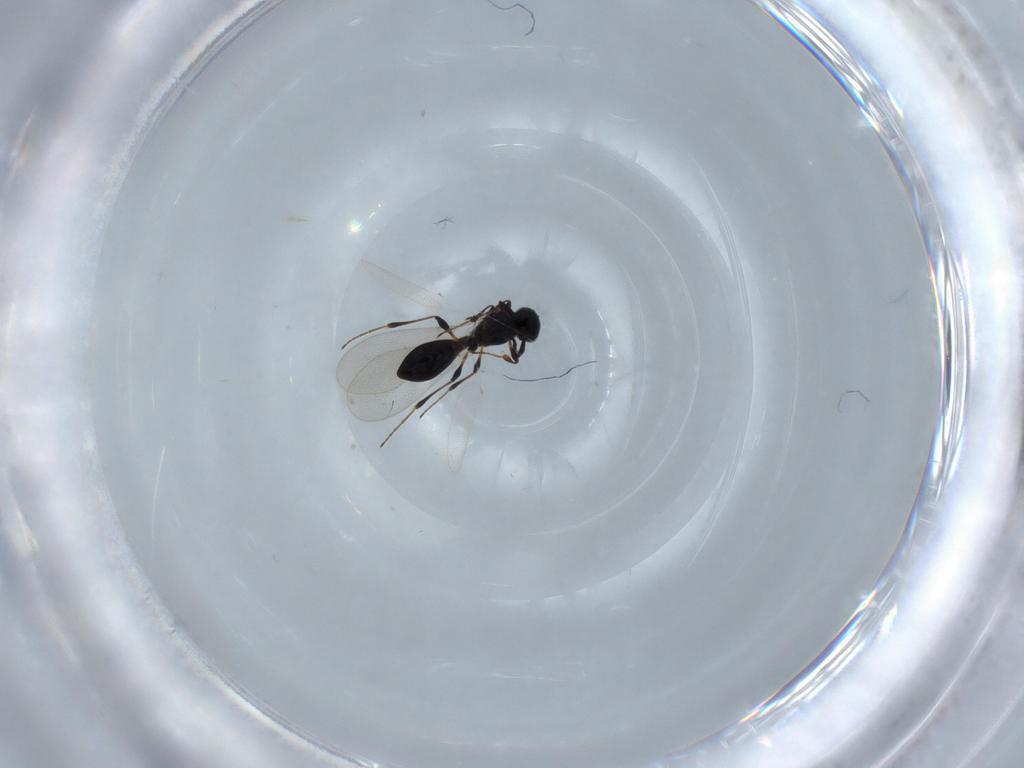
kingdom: Animalia
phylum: Arthropoda
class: Insecta
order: Hymenoptera
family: Platygastridae
